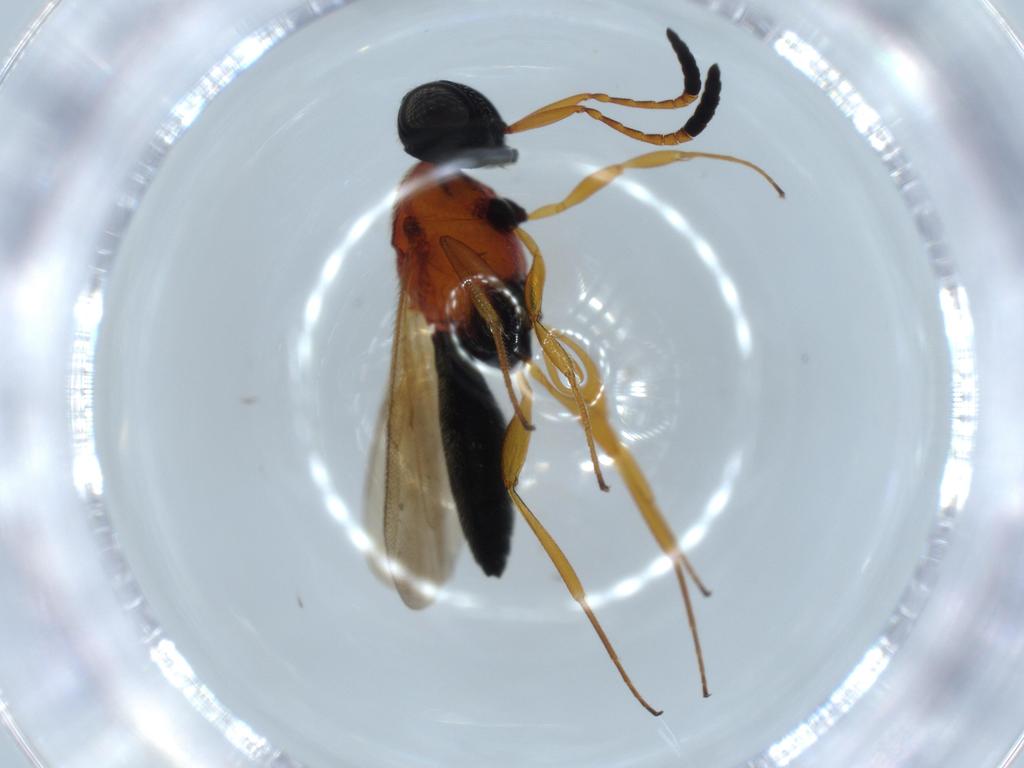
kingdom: Animalia
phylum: Arthropoda
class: Insecta
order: Hymenoptera
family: Scelionidae
